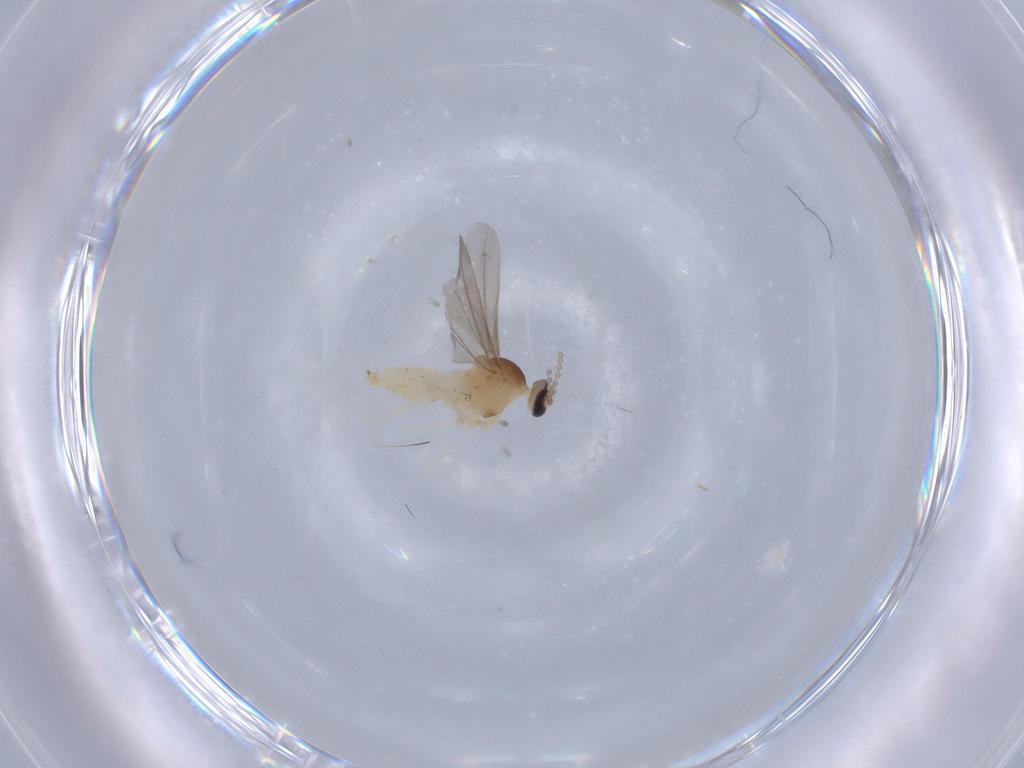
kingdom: Animalia
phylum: Arthropoda
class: Insecta
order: Diptera
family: Cecidomyiidae
